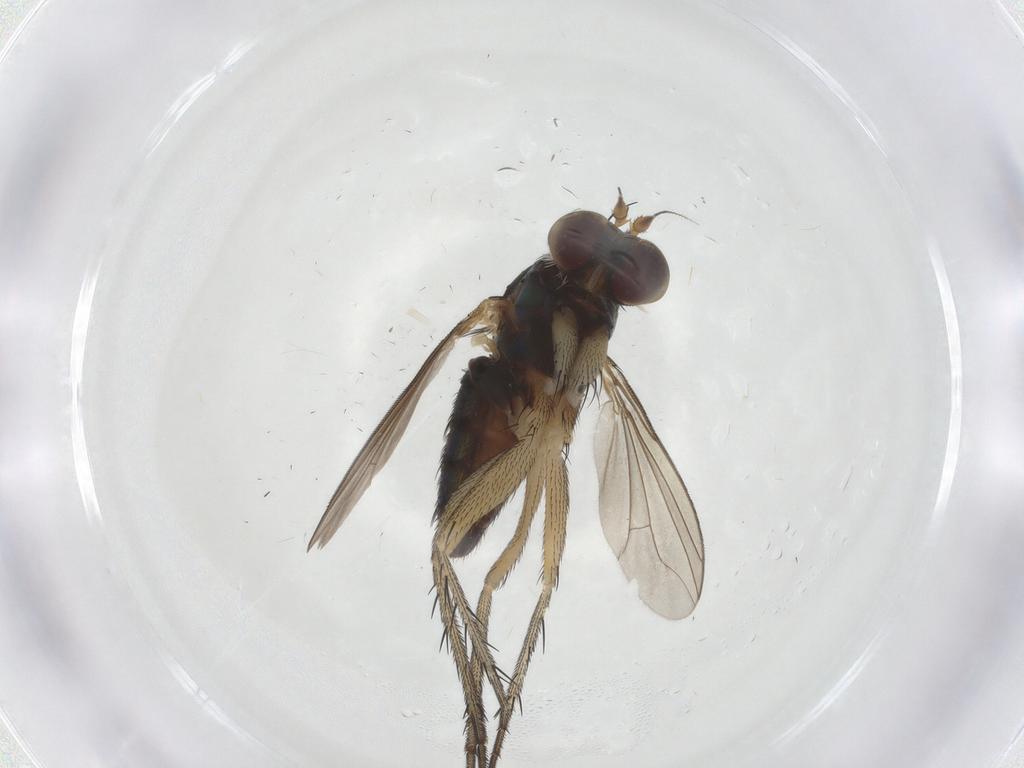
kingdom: Animalia
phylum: Arthropoda
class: Insecta
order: Diptera
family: Dolichopodidae
